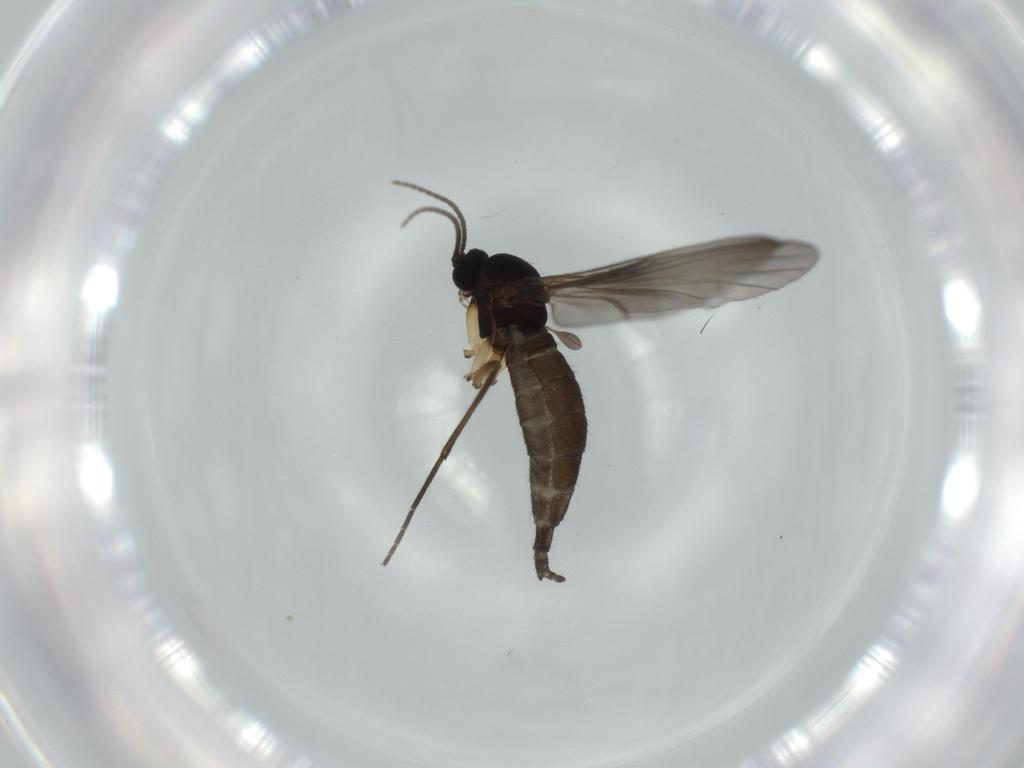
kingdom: Animalia
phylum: Arthropoda
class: Insecta
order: Diptera
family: Sciaridae
